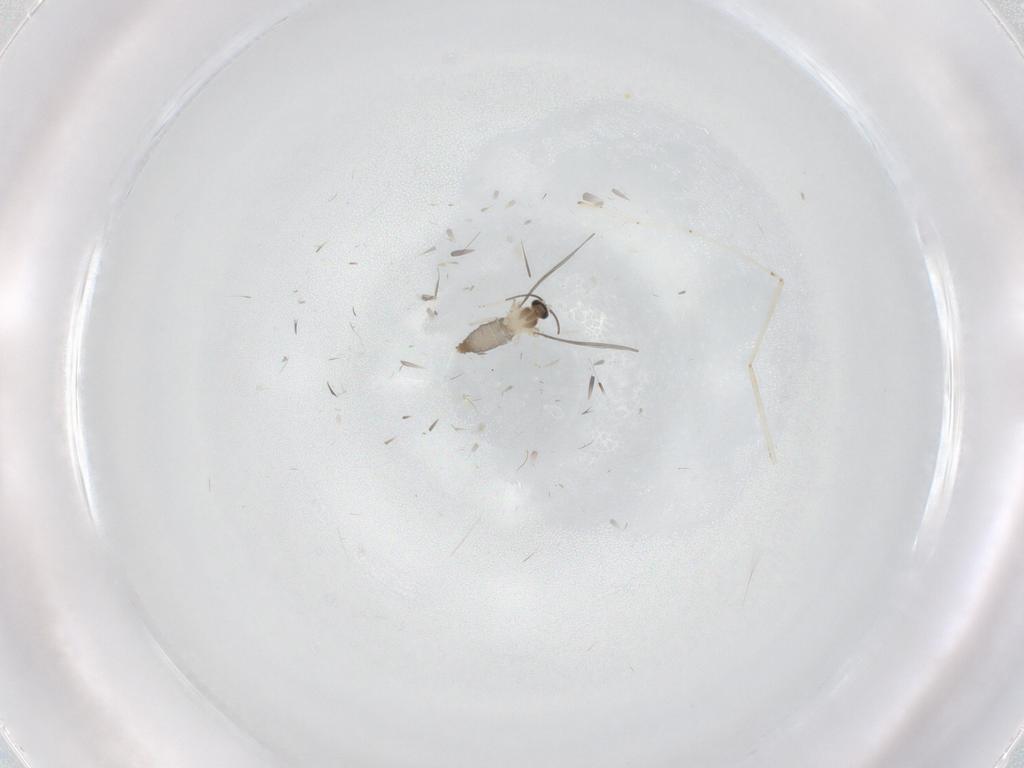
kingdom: Animalia
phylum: Arthropoda
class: Insecta
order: Diptera
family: Cecidomyiidae
